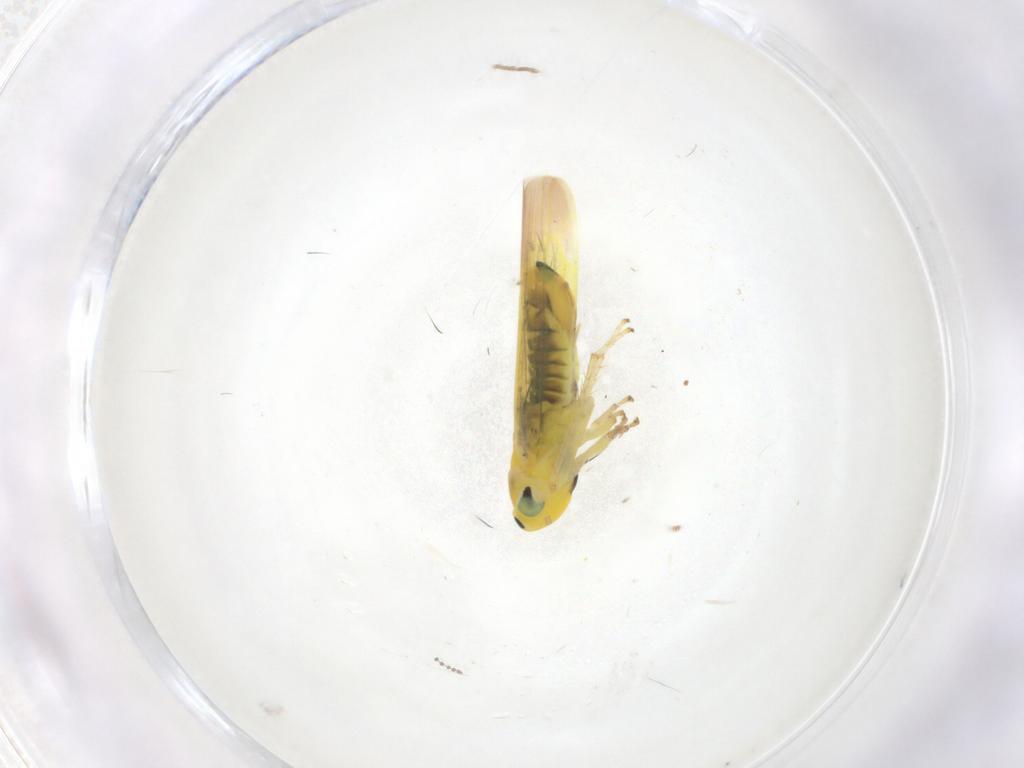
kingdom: Animalia
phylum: Arthropoda
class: Insecta
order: Hemiptera
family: Cicadellidae
